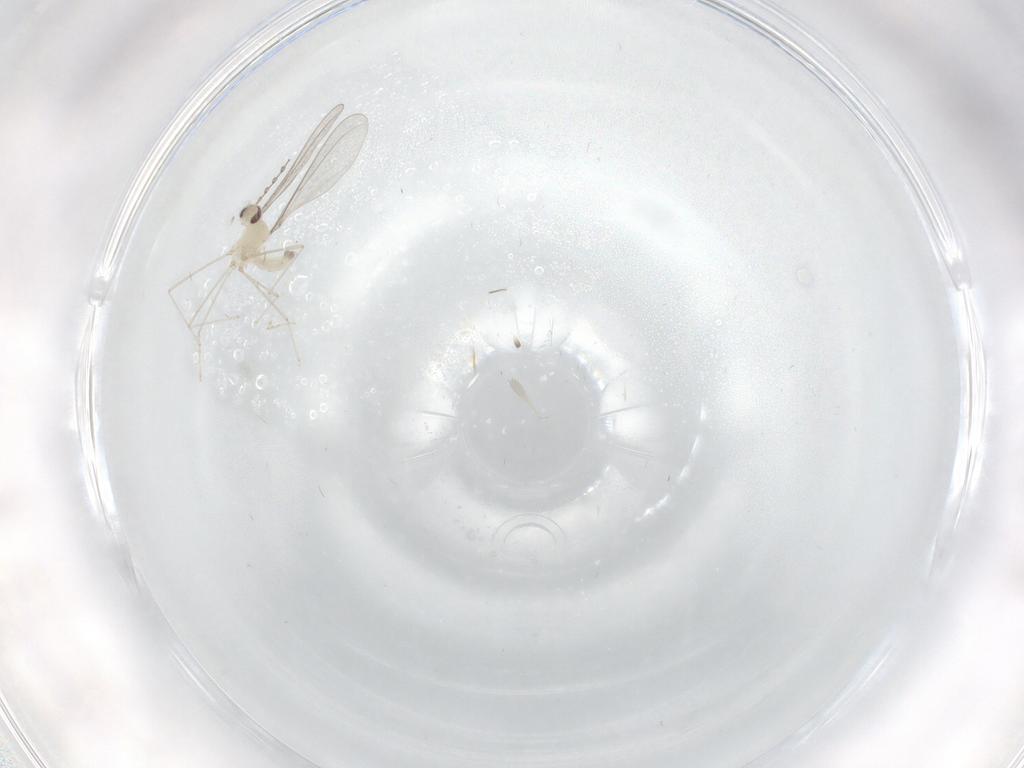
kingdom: Animalia
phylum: Arthropoda
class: Insecta
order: Diptera
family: Cecidomyiidae
